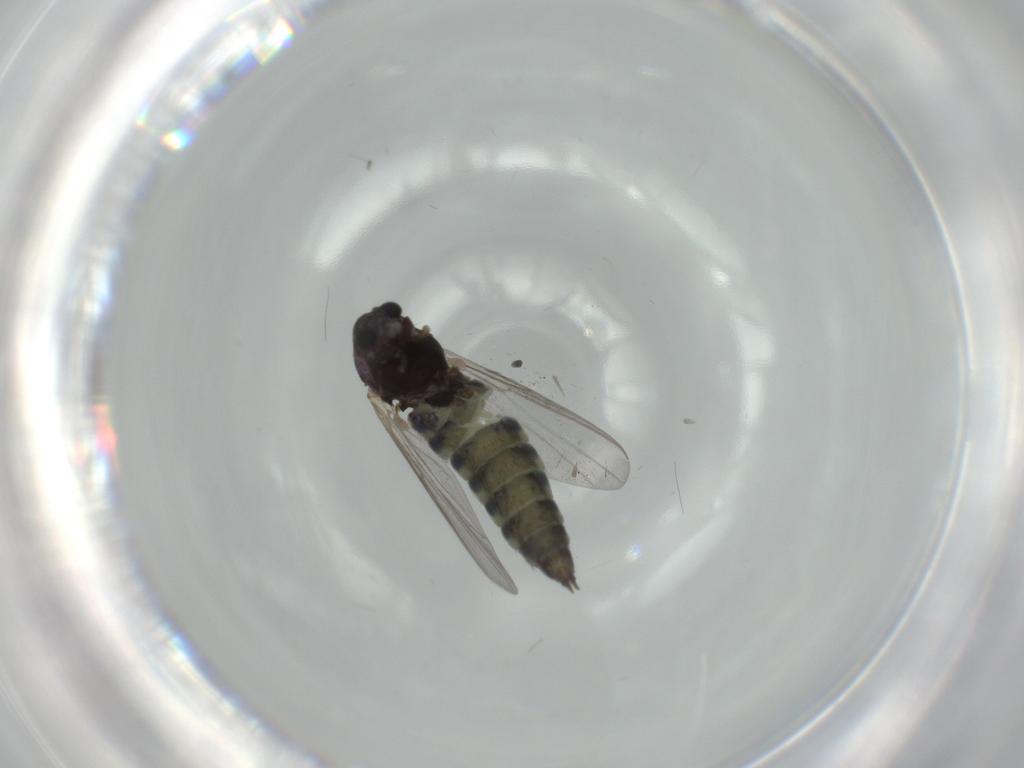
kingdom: Animalia
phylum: Arthropoda
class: Insecta
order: Diptera
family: Chironomidae
